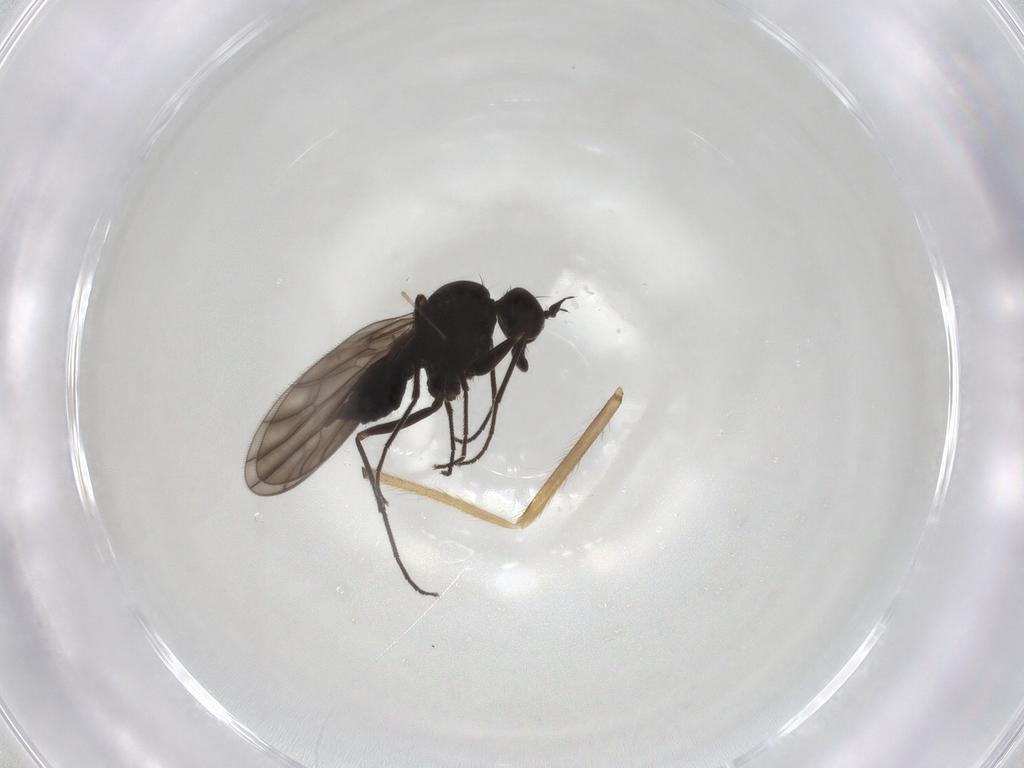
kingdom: Animalia
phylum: Arthropoda
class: Insecta
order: Diptera
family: Chironomidae
